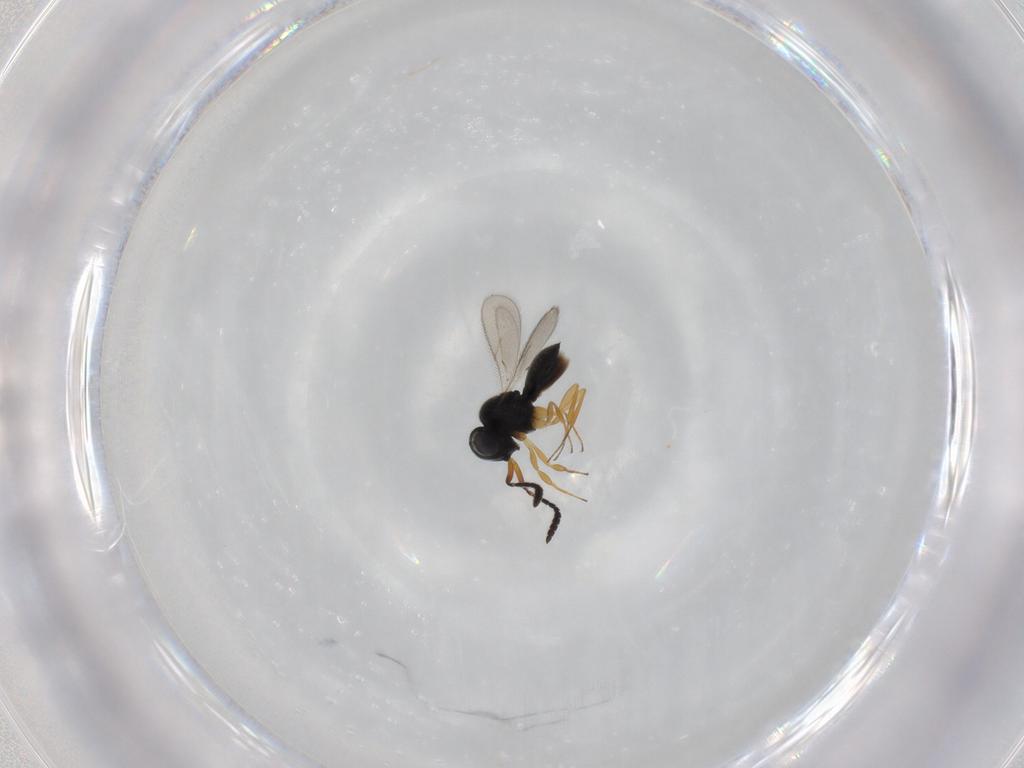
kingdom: Animalia
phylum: Arthropoda
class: Insecta
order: Hymenoptera
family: Scelionidae
